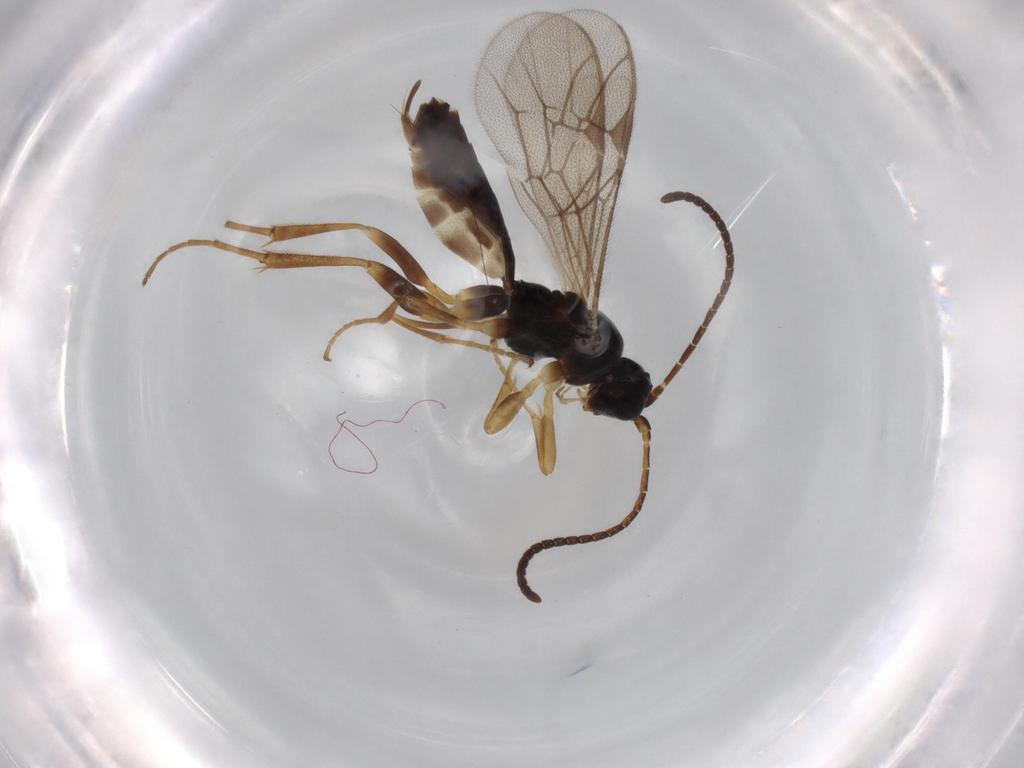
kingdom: Animalia
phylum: Arthropoda
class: Insecta
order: Hymenoptera
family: Ichneumonidae
